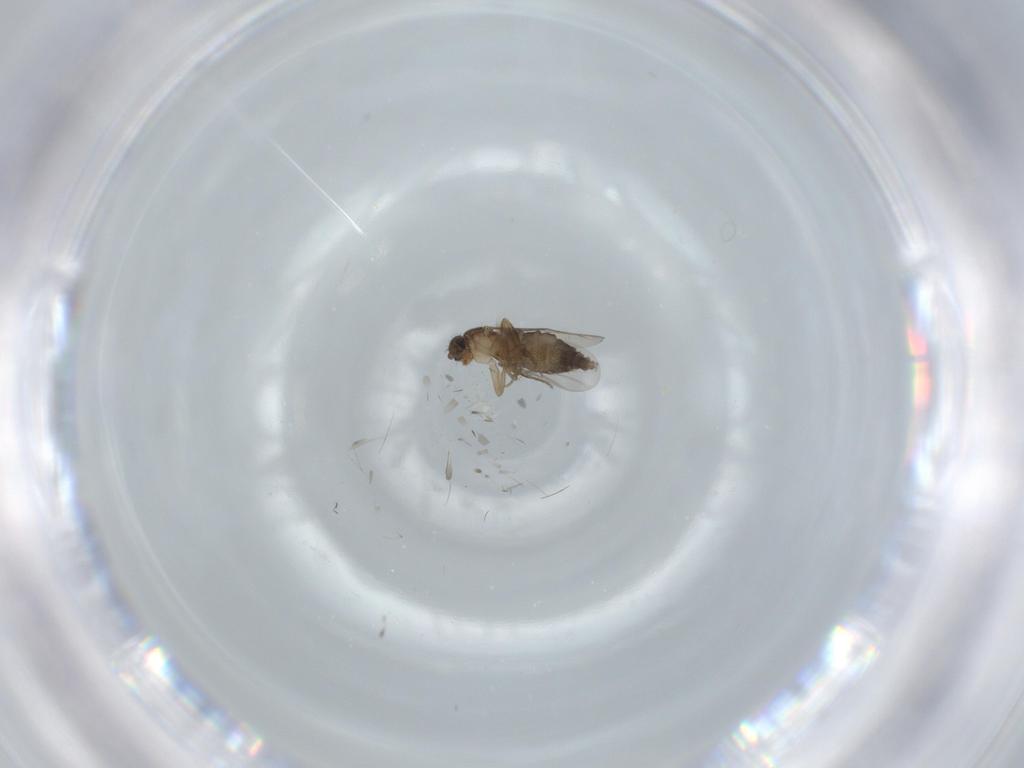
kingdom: Animalia
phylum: Arthropoda
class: Insecta
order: Diptera
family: Phoridae
